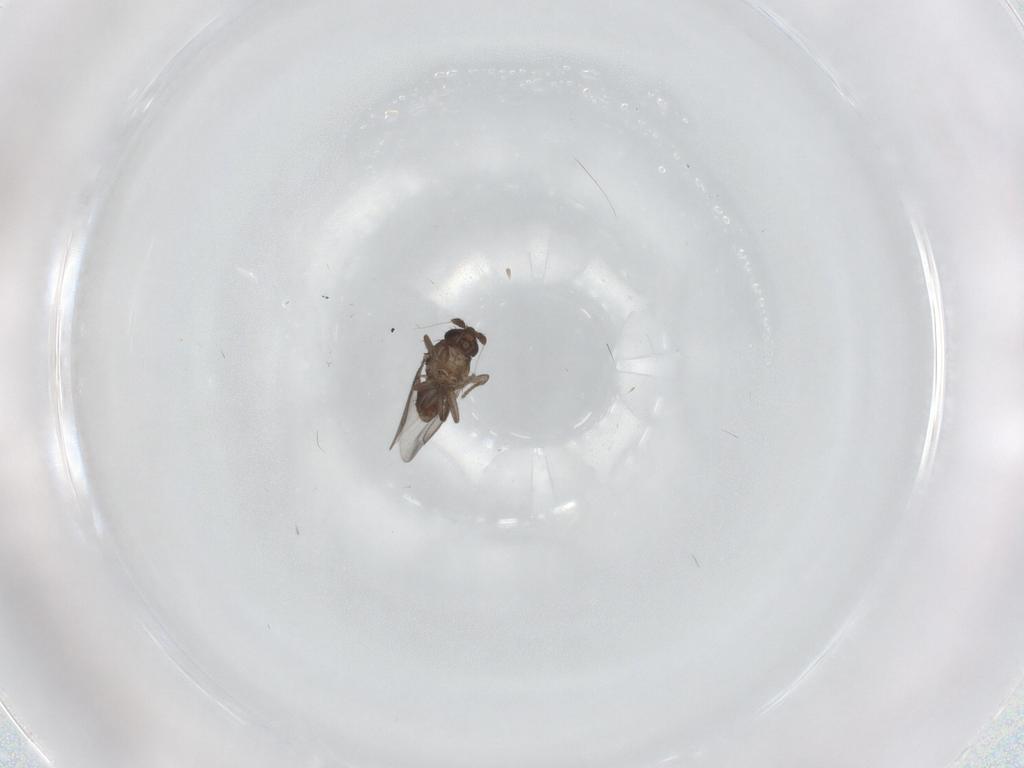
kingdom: Animalia
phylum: Arthropoda
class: Insecta
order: Diptera
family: Sphaeroceridae
